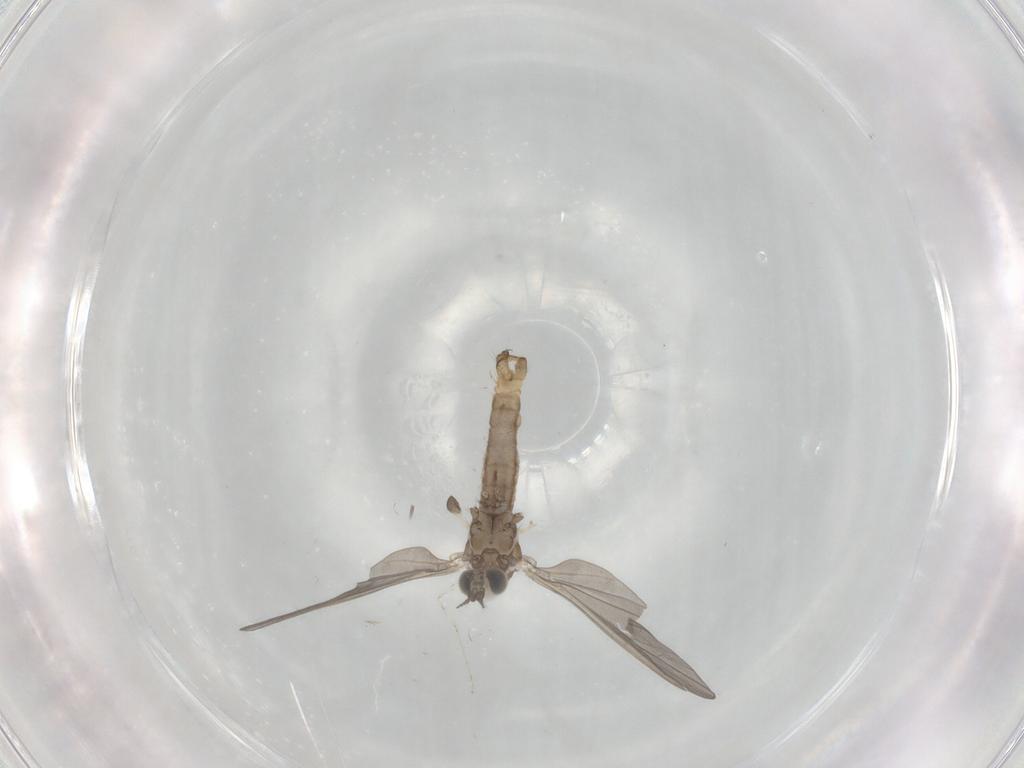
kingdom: Animalia
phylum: Arthropoda
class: Insecta
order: Diptera
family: Limoniidae
